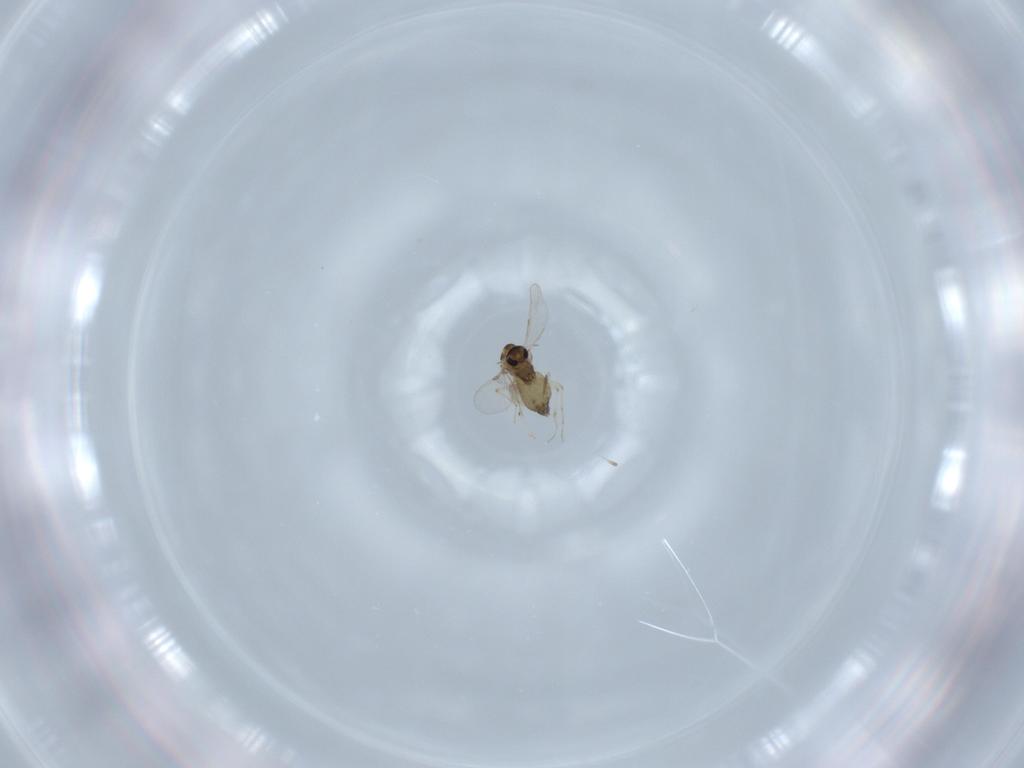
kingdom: Animalia
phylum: Arthropoda
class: Insecta
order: Diptera
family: Chironomidae
